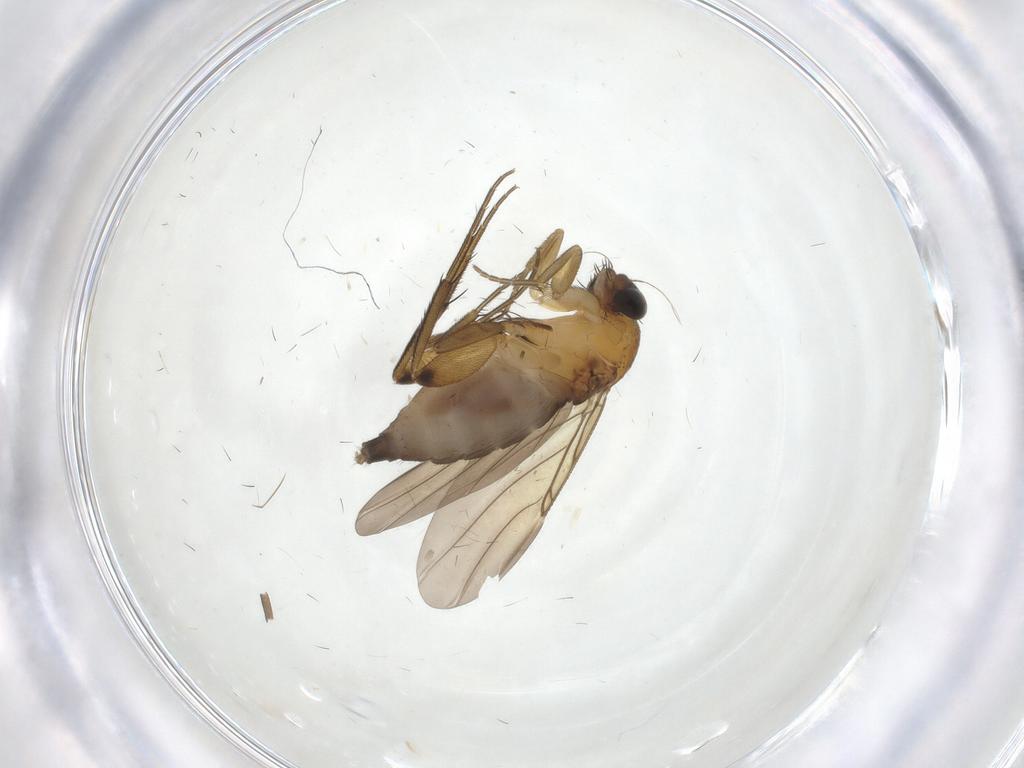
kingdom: Animalia
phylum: Arthropoda
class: Insecta
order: Diptera
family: Phoridae
